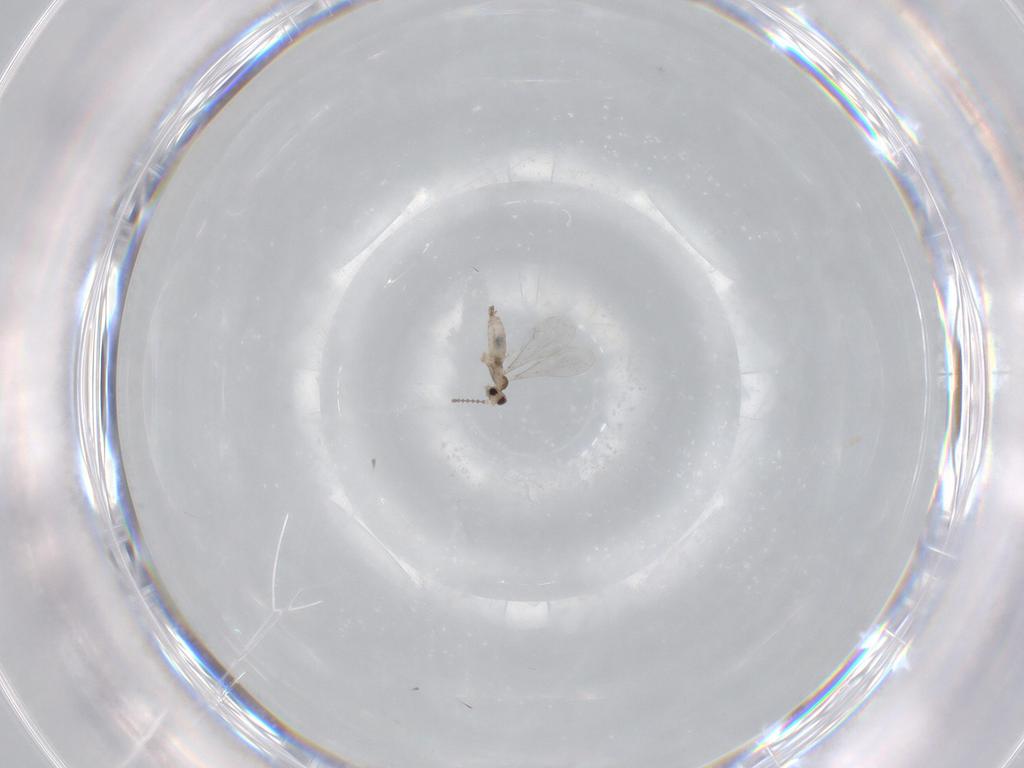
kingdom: Animalia
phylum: Arthropoda
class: Insecta
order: Diptera
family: Cecidomyiidae
